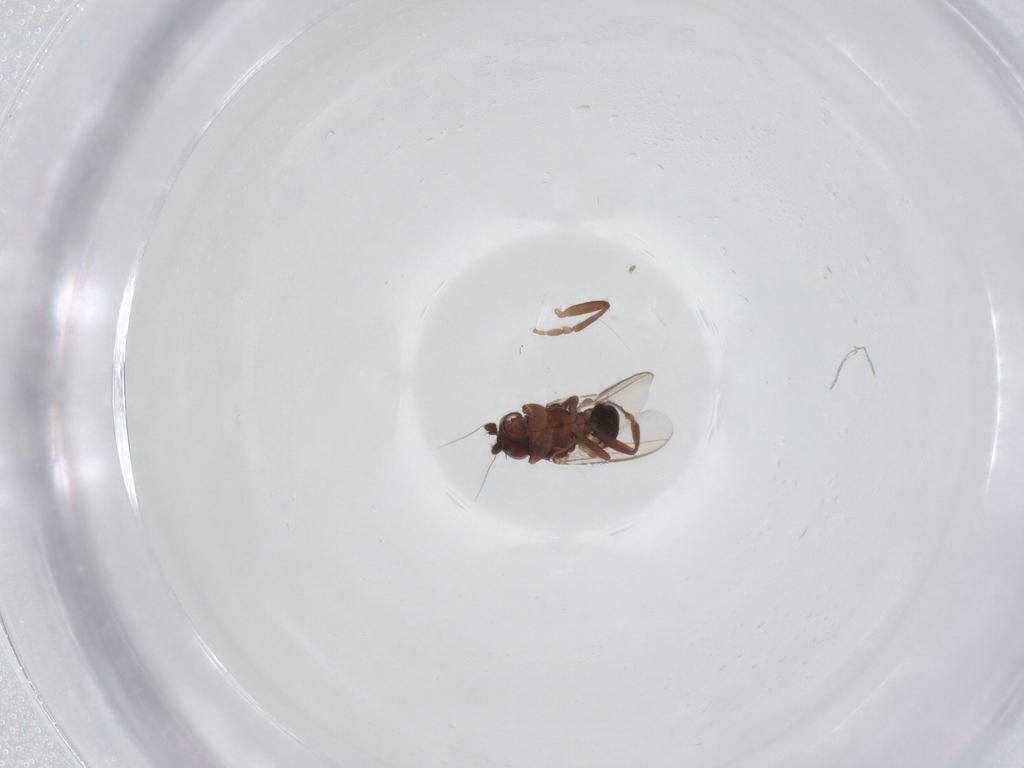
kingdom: Animalia
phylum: Arthropoda
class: Insecta
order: Diptera
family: Sphaeroceridae
